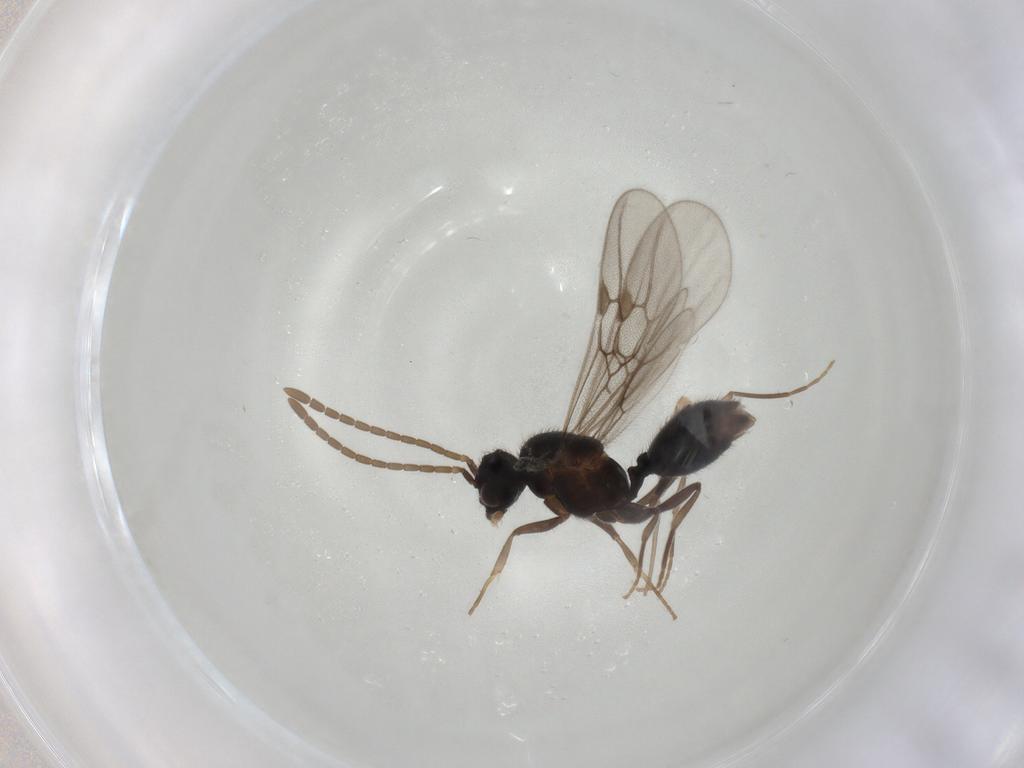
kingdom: Animalia
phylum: Arthropoda
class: Insecta
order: Hymenoptera
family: Formicidae
